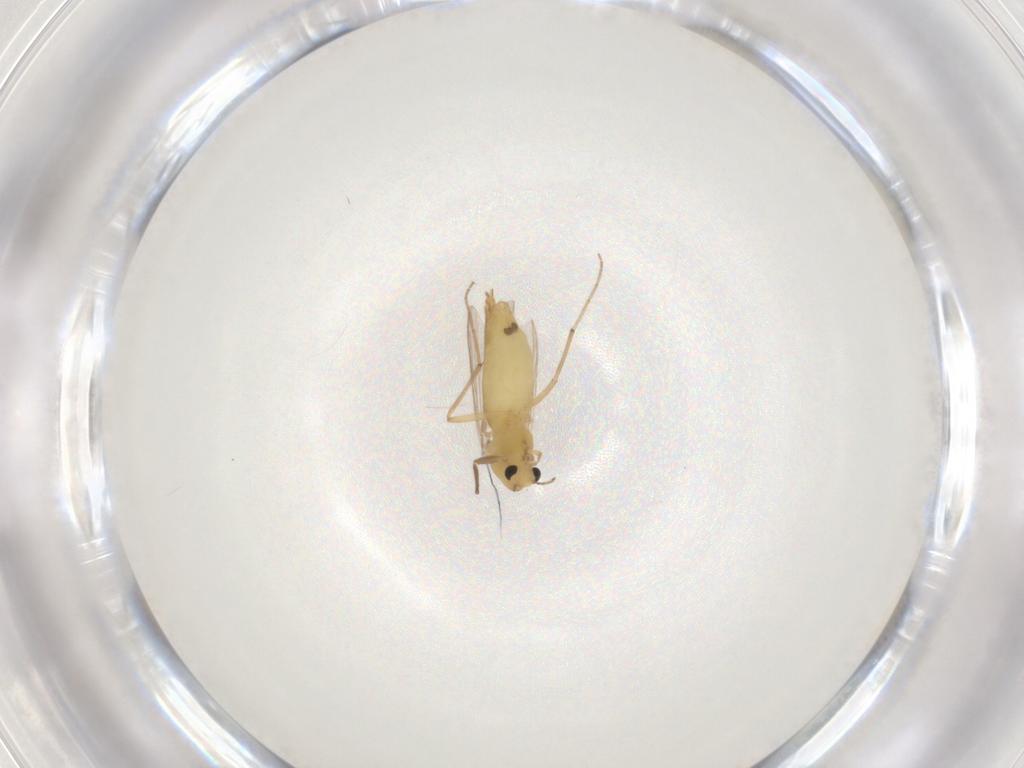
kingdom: Animalia
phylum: Arthropoda
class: Insecta
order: Diptera
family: Chironomidae
